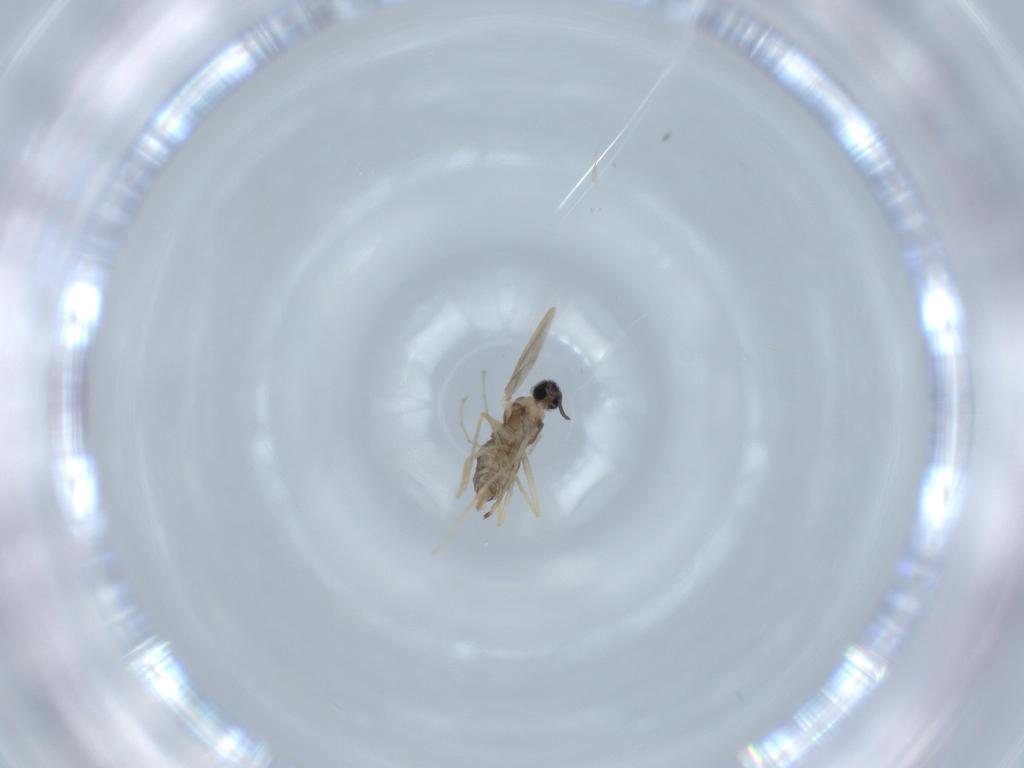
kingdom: Animalia
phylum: Arthropoda
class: Insecta
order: Diptera
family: Cecidomyiidae
